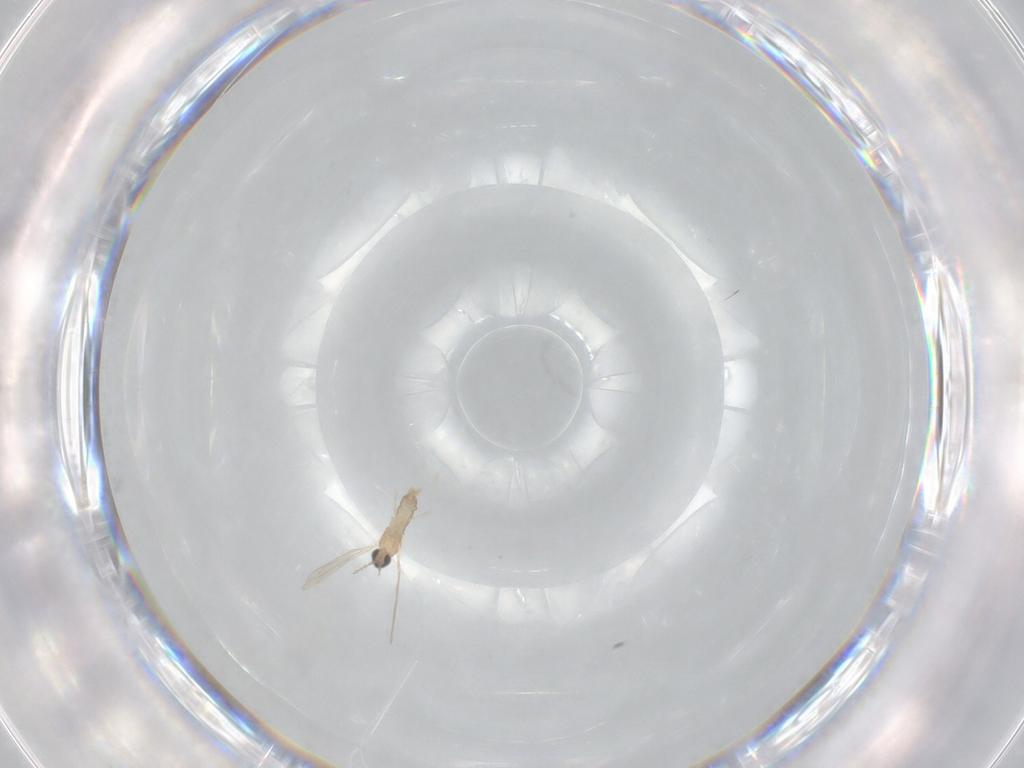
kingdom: Animalia
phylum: Arthropoda
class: Insecta
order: Diptera
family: Cecidomyiidae
